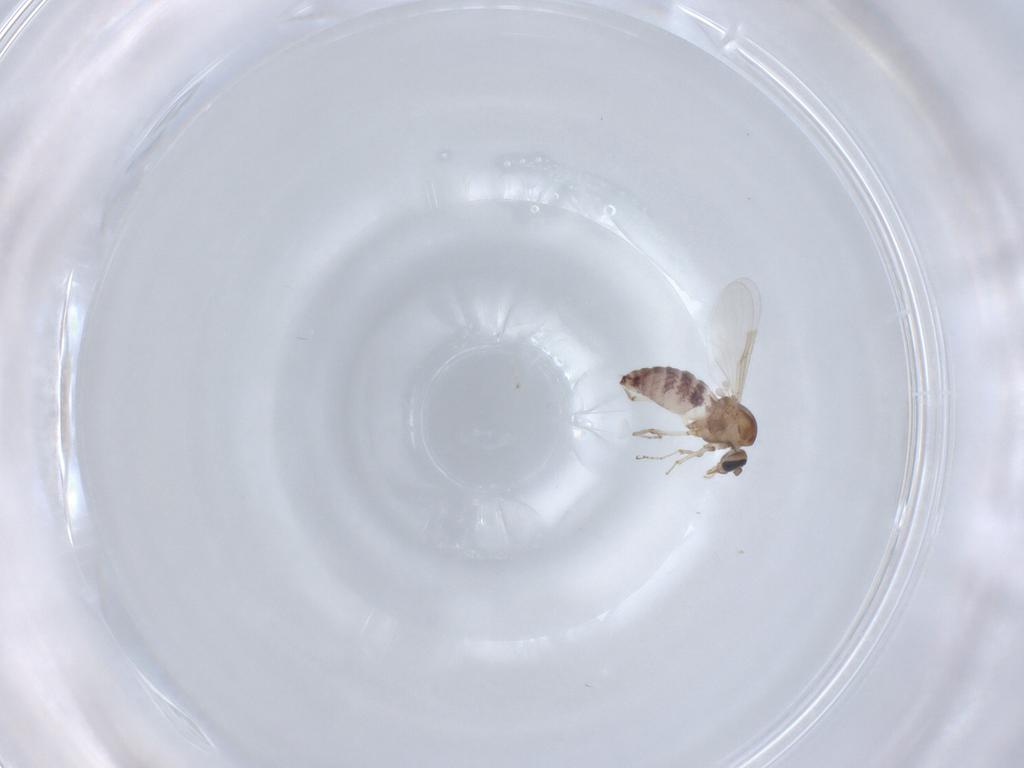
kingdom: Animalia
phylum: Arthropoda
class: Insecta
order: Diptera
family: Ceratopogonidae
